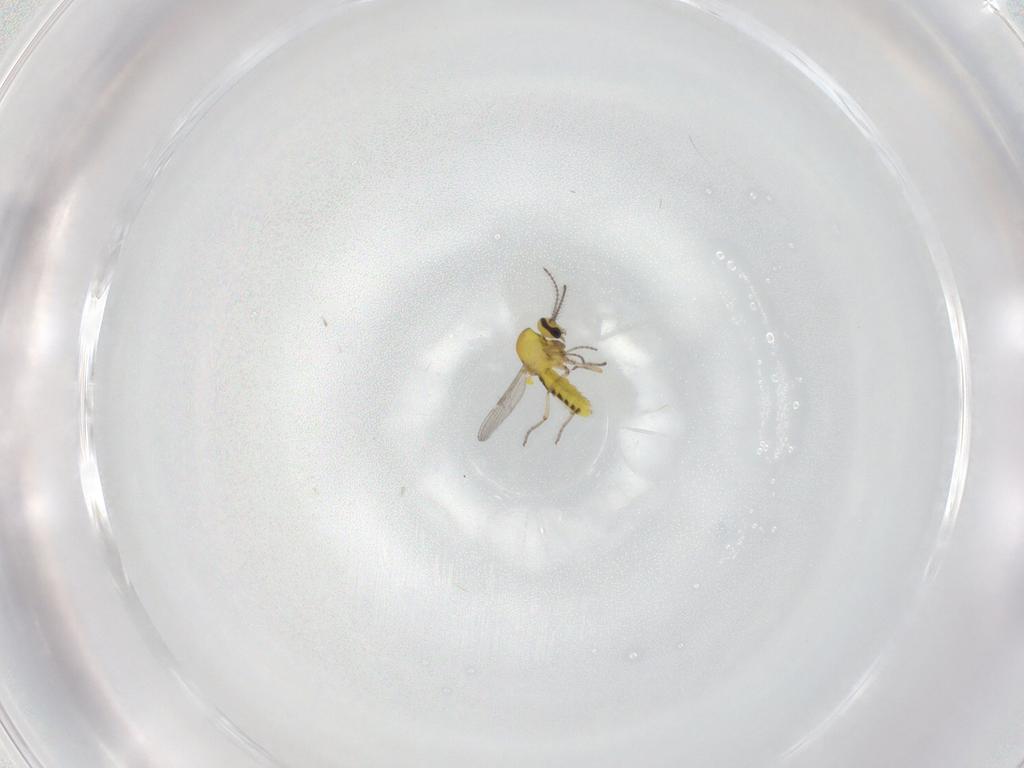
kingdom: Animalia
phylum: Arthropoda
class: Insecta
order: Diptera
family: Ceratopogonidae
